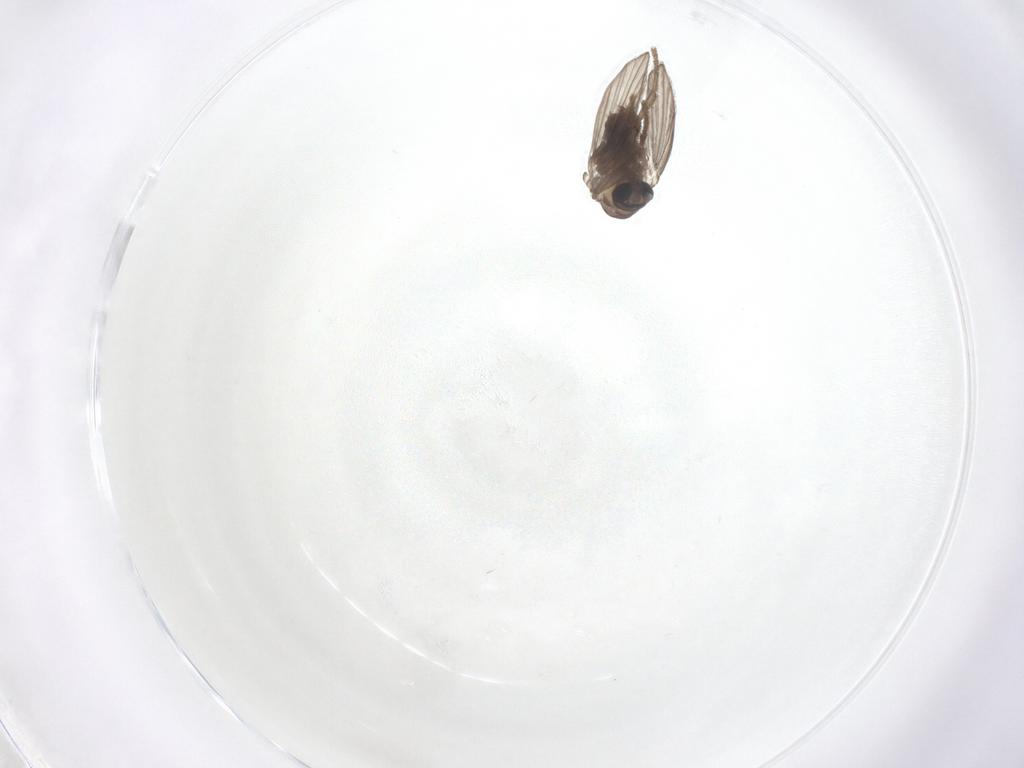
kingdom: Animalia
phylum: Arthropoda
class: Insecta
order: Diptera
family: Psychodidae
